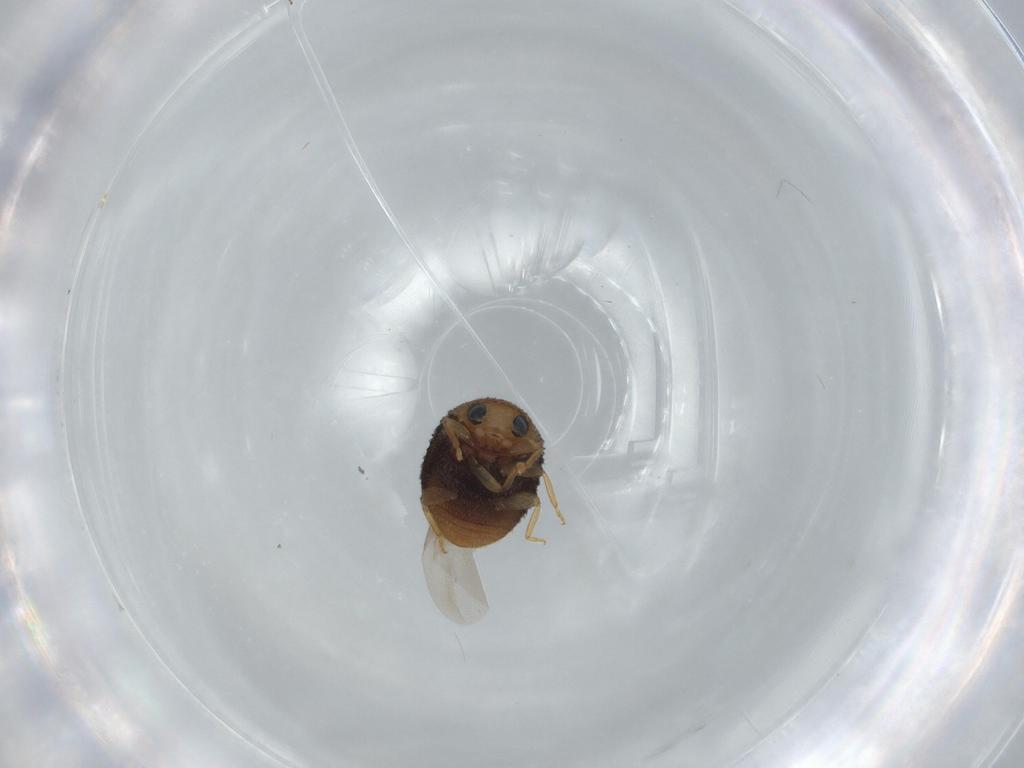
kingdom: Animalia
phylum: Arthropoda
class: Insecta
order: Coleoptera
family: Coccinellidae
